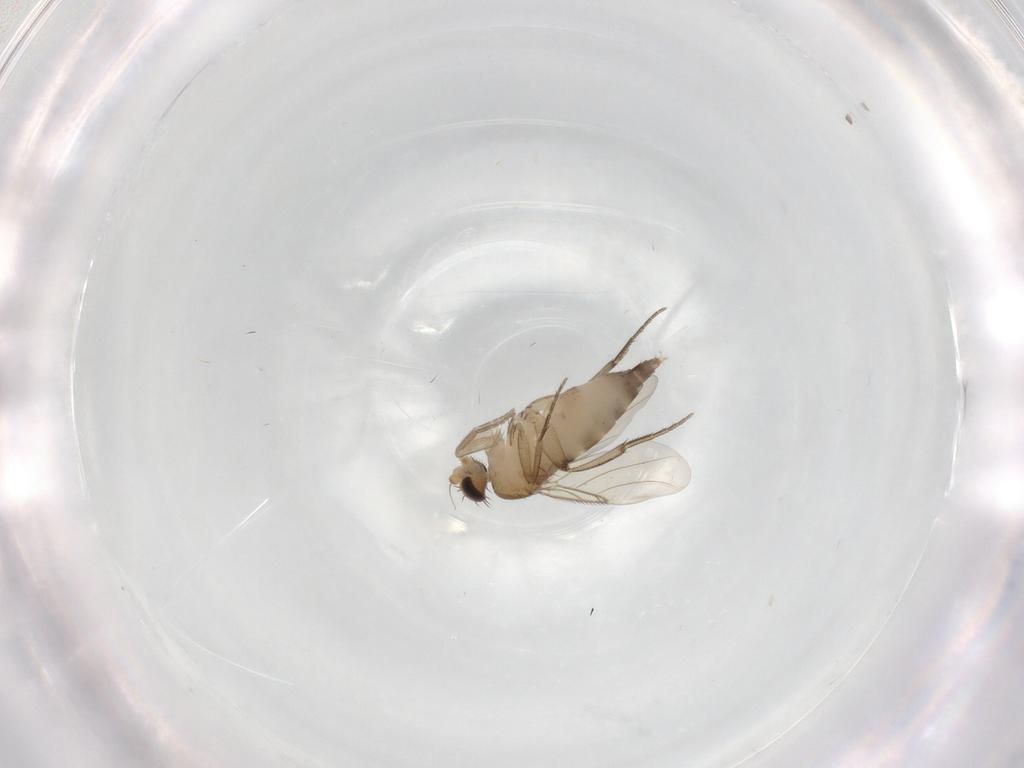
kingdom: Animalia
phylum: Arthropoda
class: Insecta
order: Diptera
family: Phoridae
